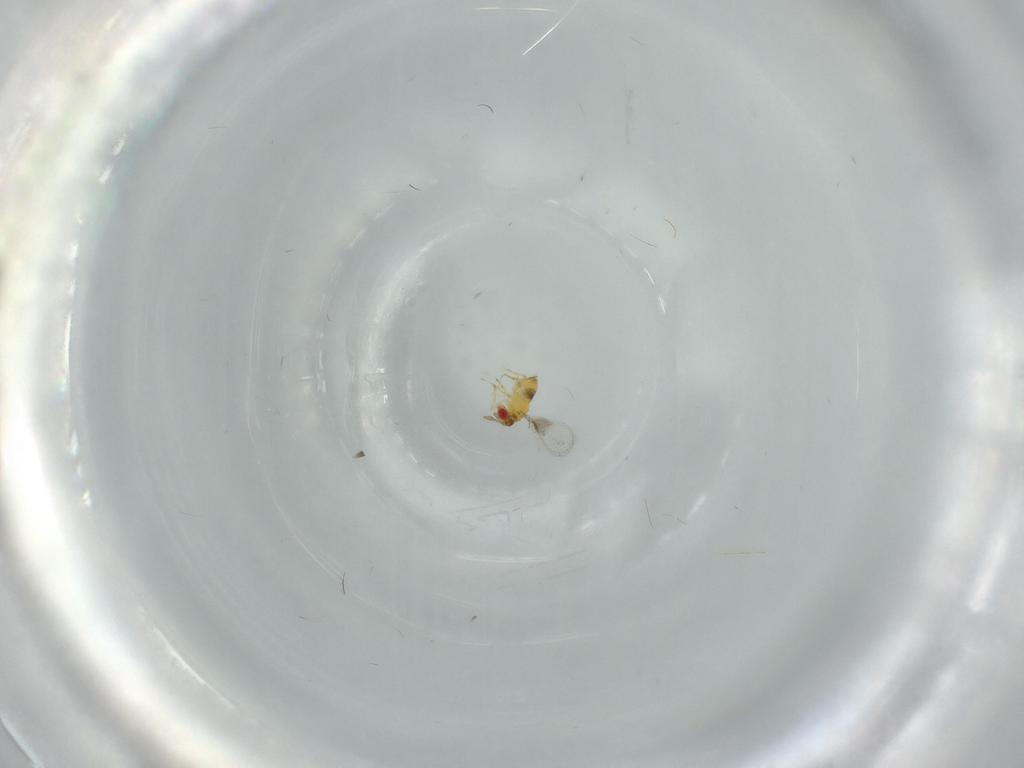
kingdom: Animalia
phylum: Arthropoda
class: Insecta
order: Hymenoptera
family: Trichogrammatidae
